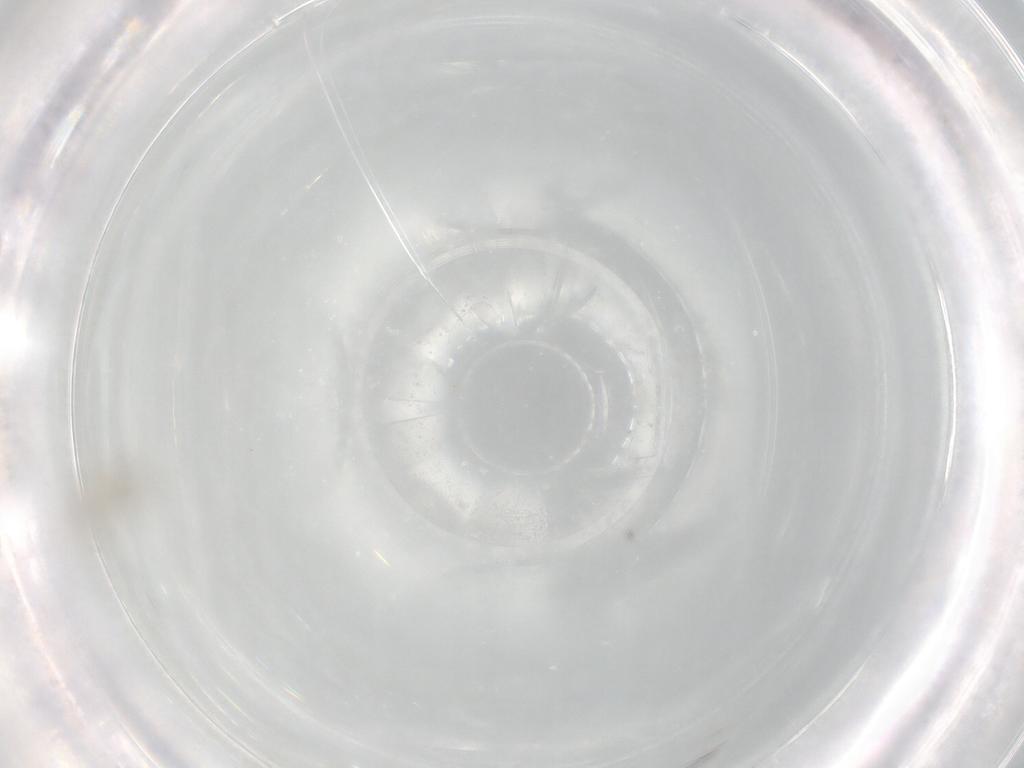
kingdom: Animalia
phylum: Arthropoda
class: Collembola
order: Entomobryomorpha
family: Entomobryidae
